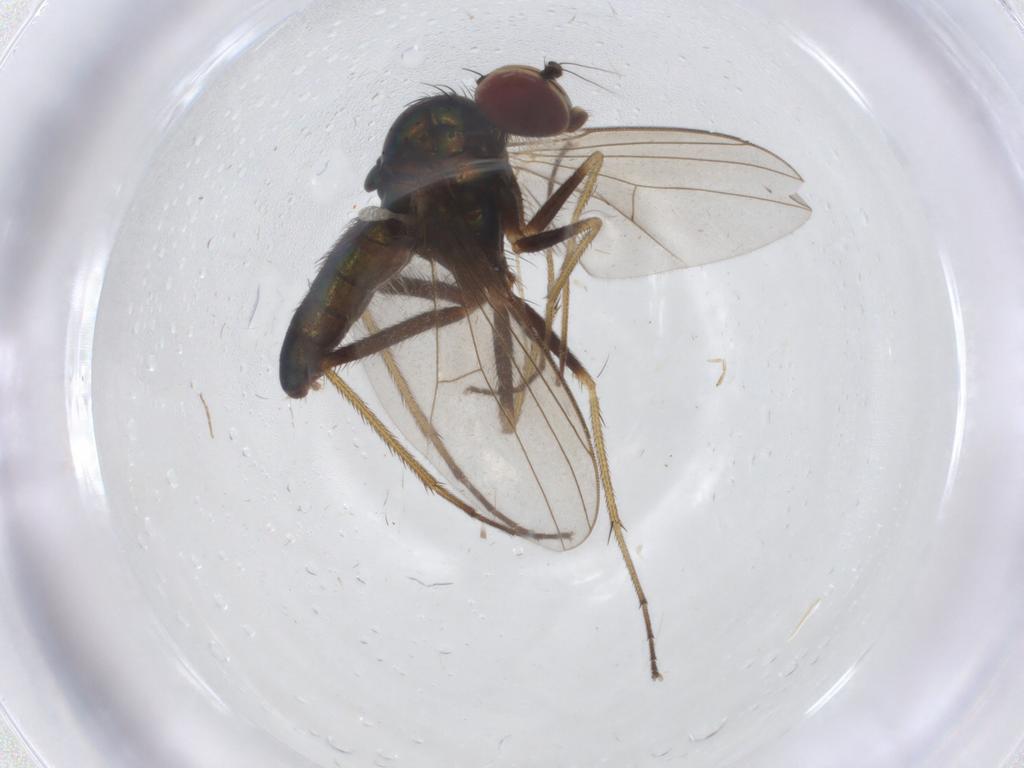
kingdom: Animalia
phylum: Arthropoda
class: Insecta
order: Diptera
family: Dolichopodidae
